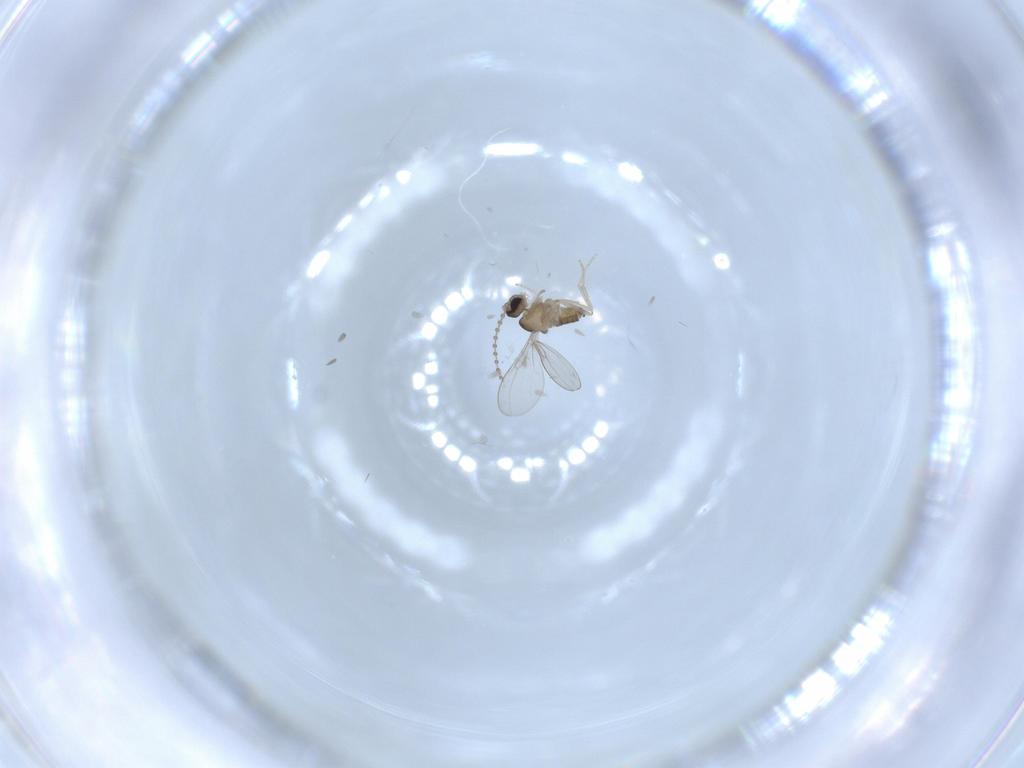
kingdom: Animalia
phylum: Arthropoda
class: Insecta
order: Diptera
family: Cecidomyiidae
